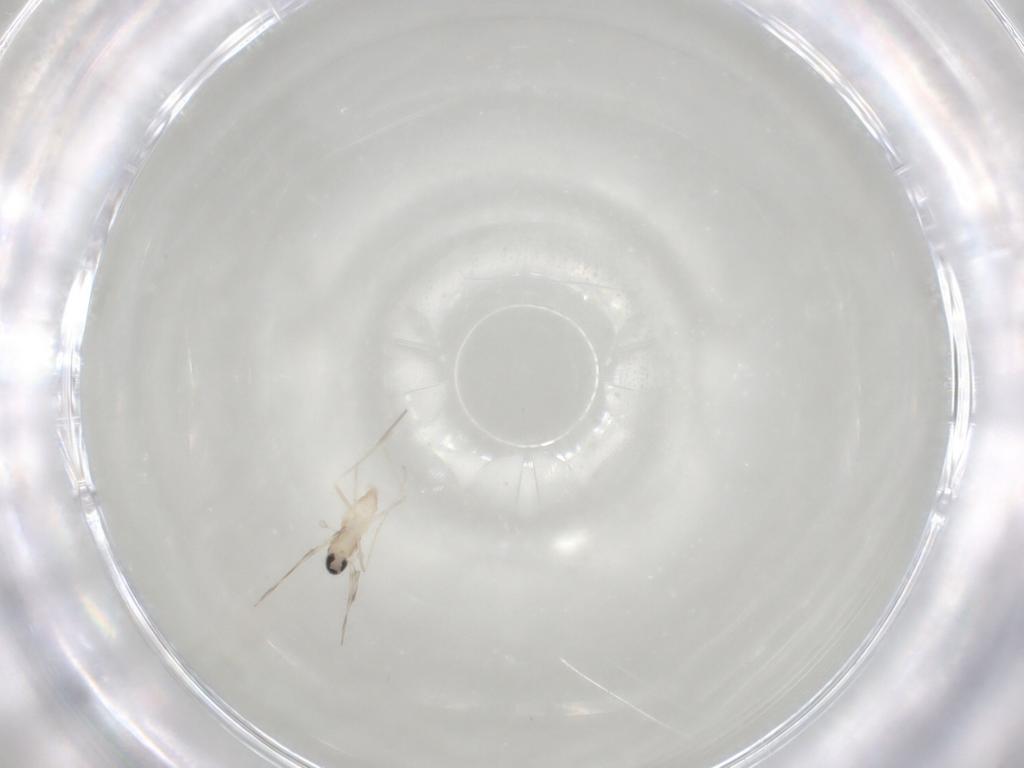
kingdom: Animalia
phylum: Arthropoda
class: Insecta
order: Diptera
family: Cecidomyiidae
